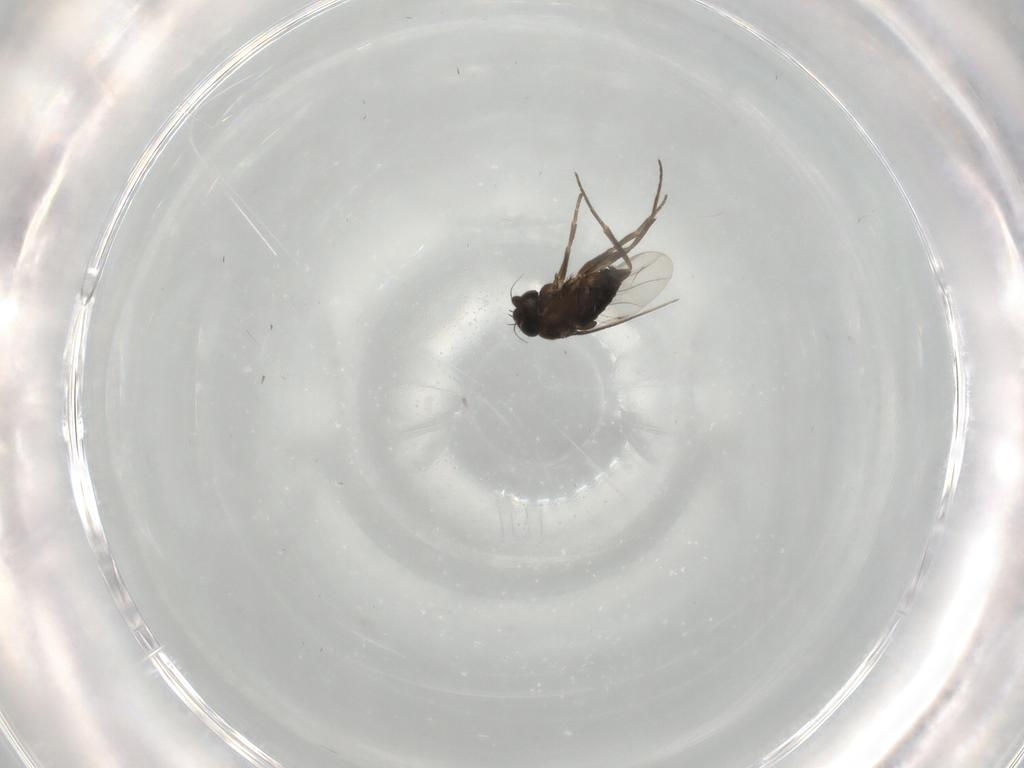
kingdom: Animalia
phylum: Arthropoda
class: Insecta
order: Diptera
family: Phoridae
